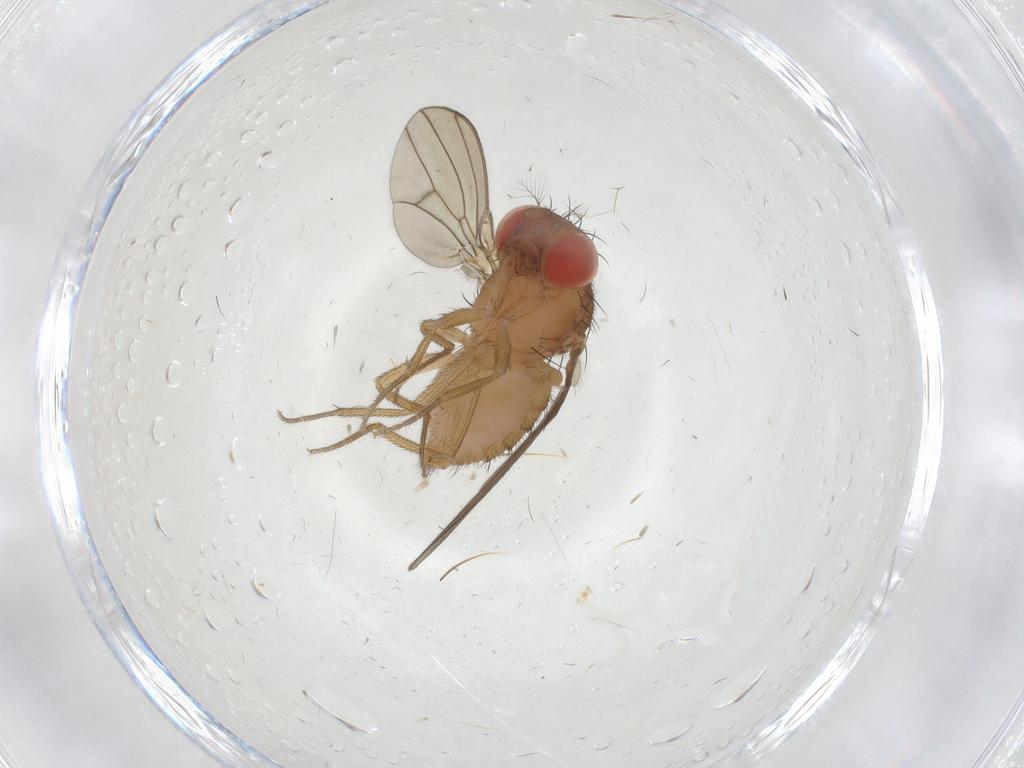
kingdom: Animalia
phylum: Arthropoda
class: Insecta
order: Diptera
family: Drosophilidae
